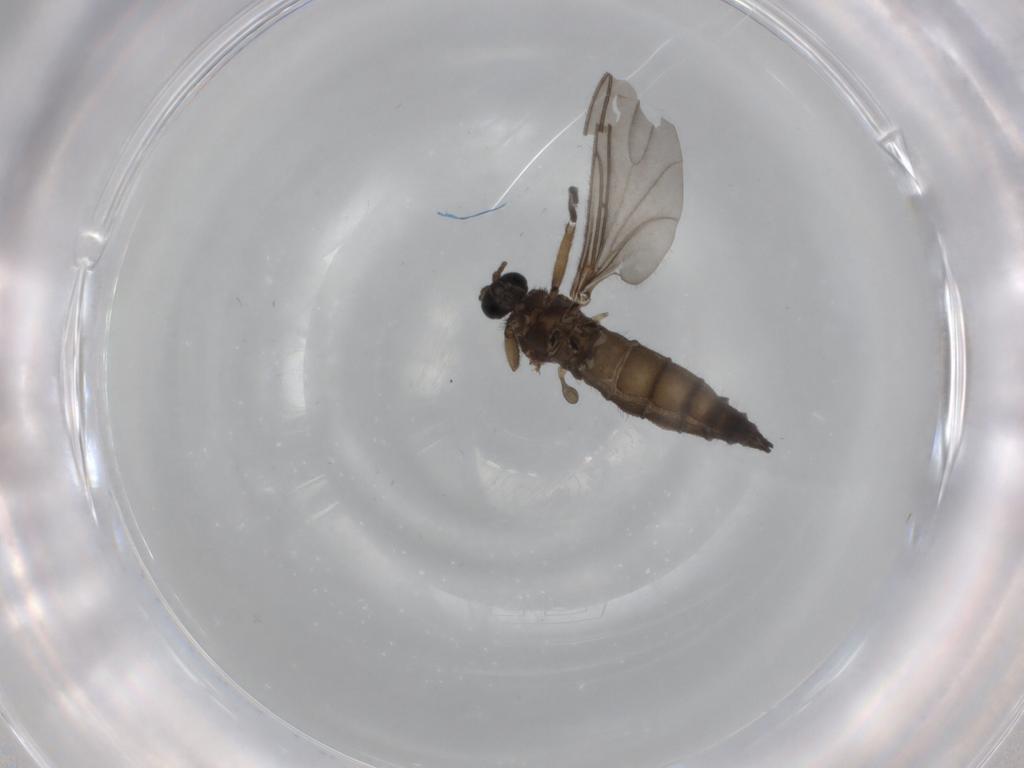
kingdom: Animalia
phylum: Arthropoda
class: Insecta
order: Diptera
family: Sciaridae
